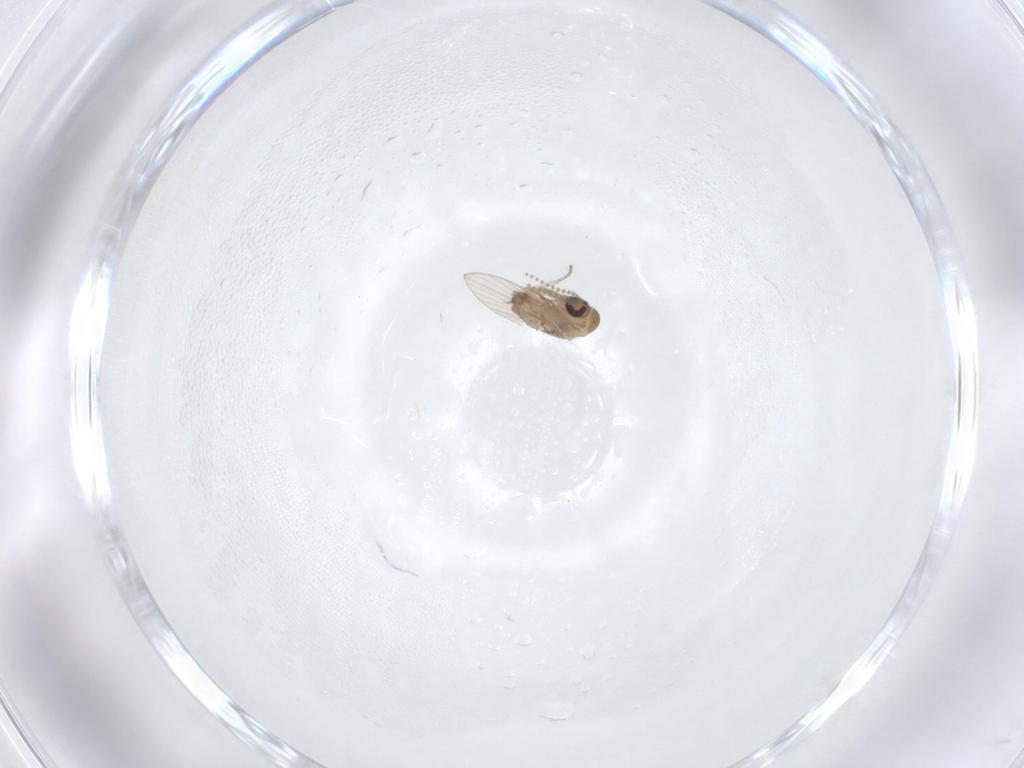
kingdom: Animalia
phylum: Arthropoda
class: Insecta
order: Diptera
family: Psychodidae
